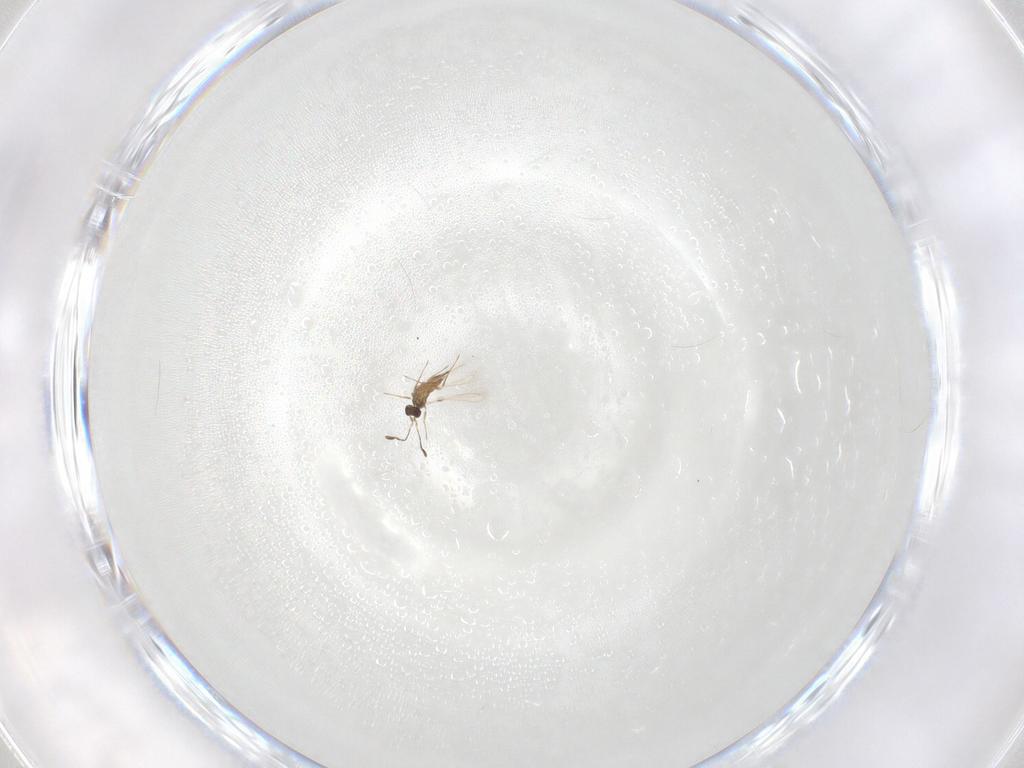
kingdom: Animalia
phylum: Arthropoda
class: Insecta
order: Hymenoptera
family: Mymaridae
